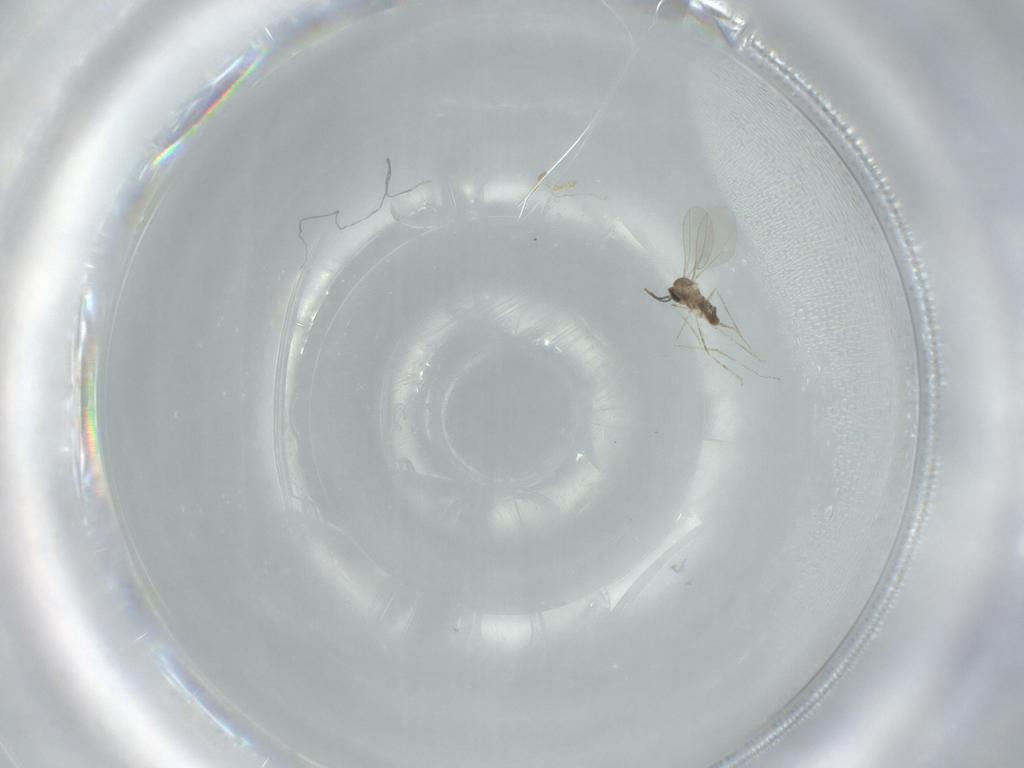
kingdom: Animalia
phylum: Arthropoda
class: Insecta
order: Diptera
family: Cecidomyiidae
